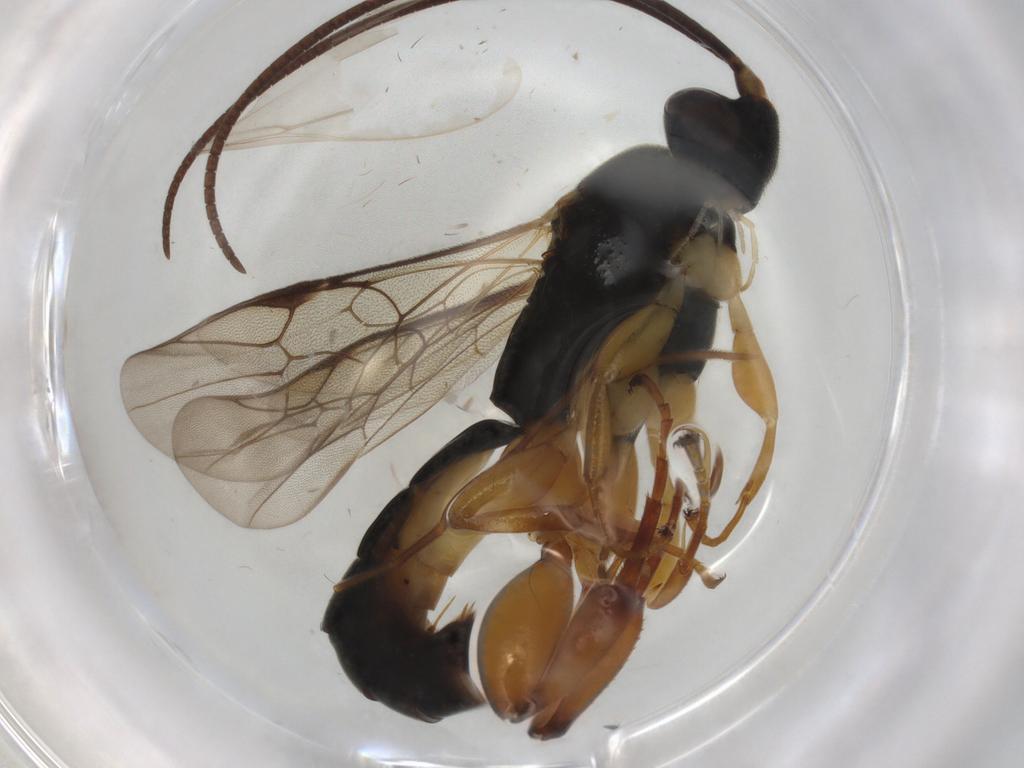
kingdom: Animalia
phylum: Arthropoda
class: Insecta
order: Hymenoptera
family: Ichneumonidae
